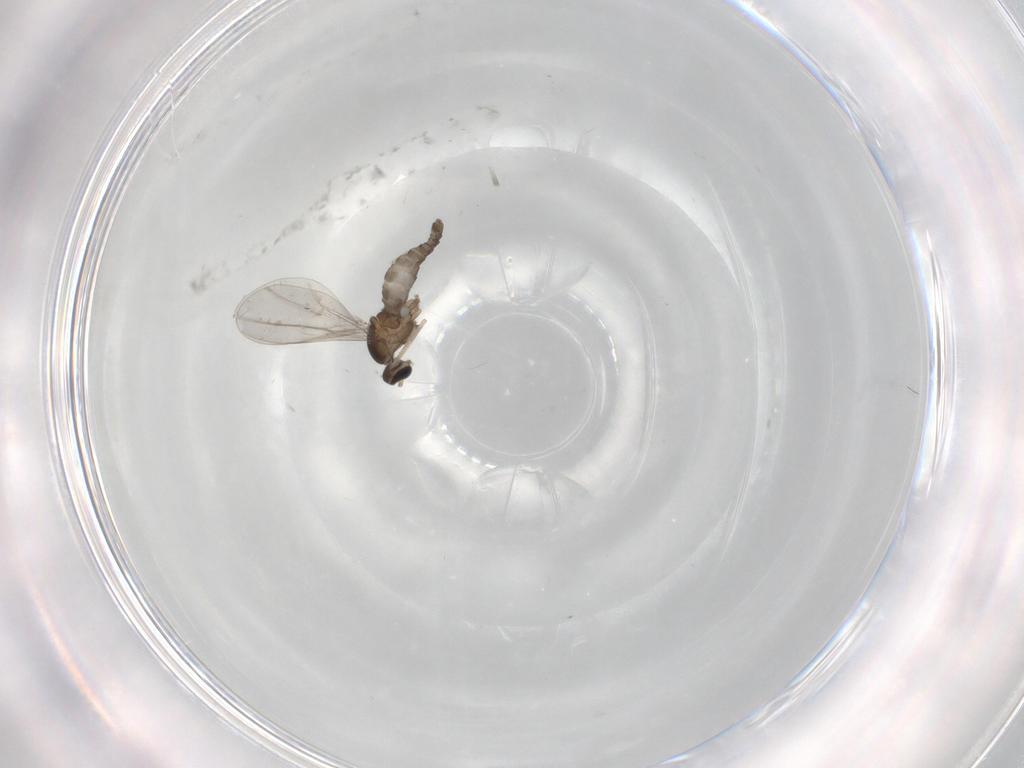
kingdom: Animalia
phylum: Arthropoda
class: Insecta
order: Diptera
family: Cecidomyiidae
